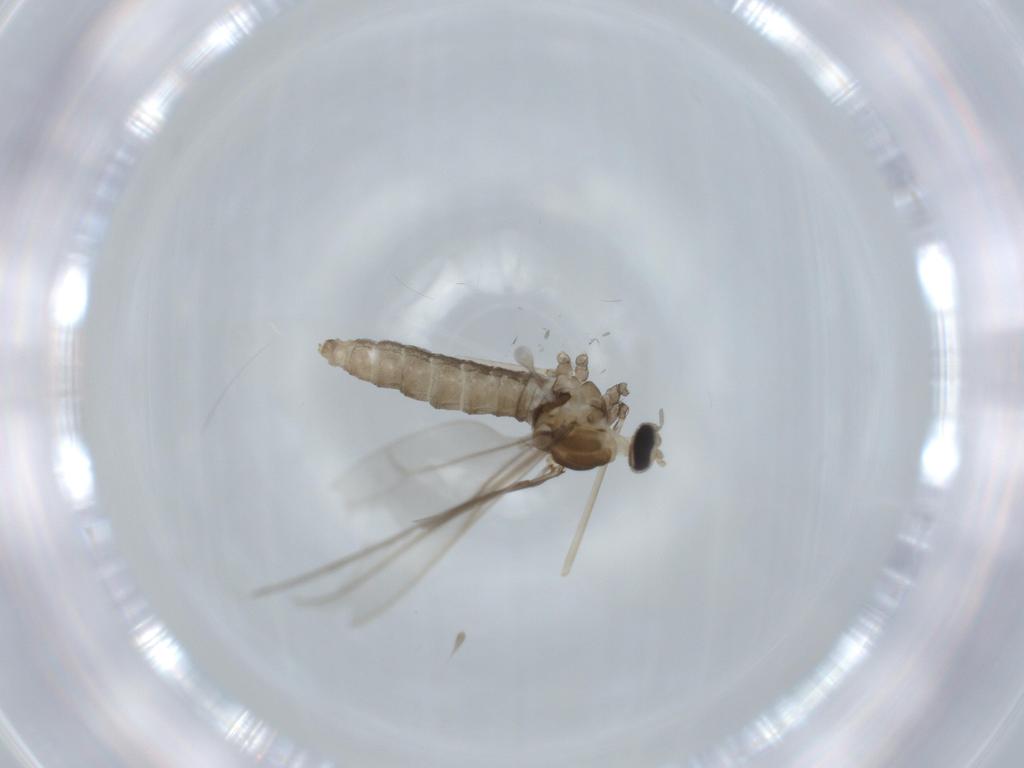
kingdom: Animalia
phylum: Arthropoda
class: Insecta
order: Diptera
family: Cecidomyiidae
